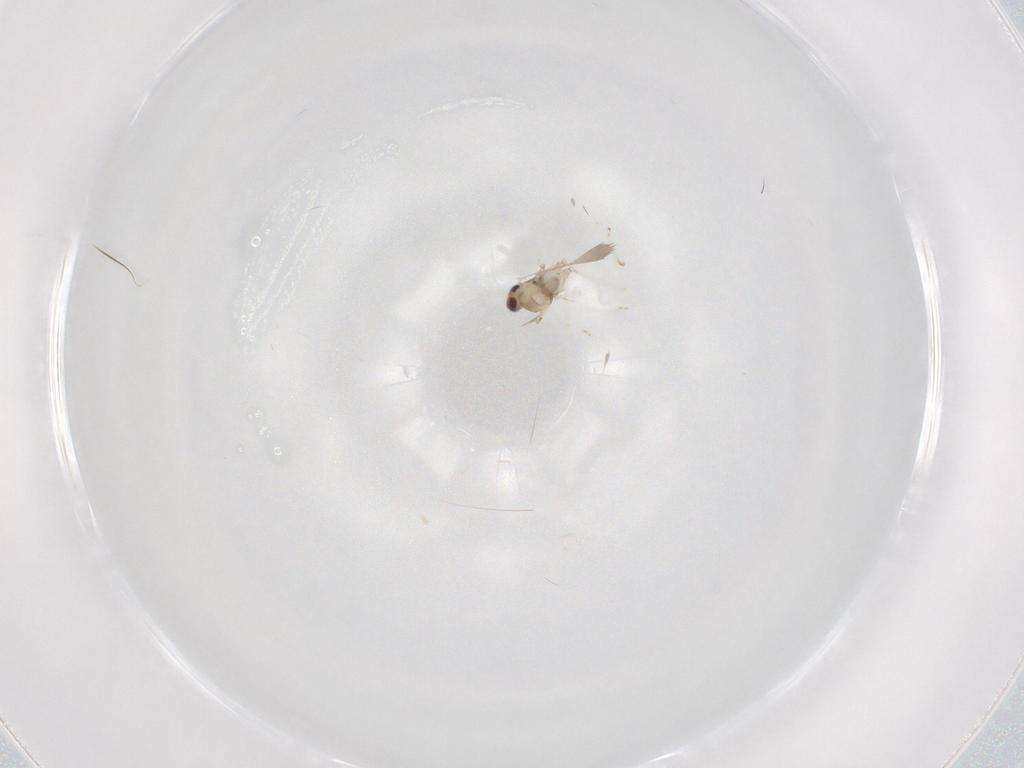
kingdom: Animalia
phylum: Arthropoda
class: Insecta
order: Diptera
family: Cecidomyiidae
